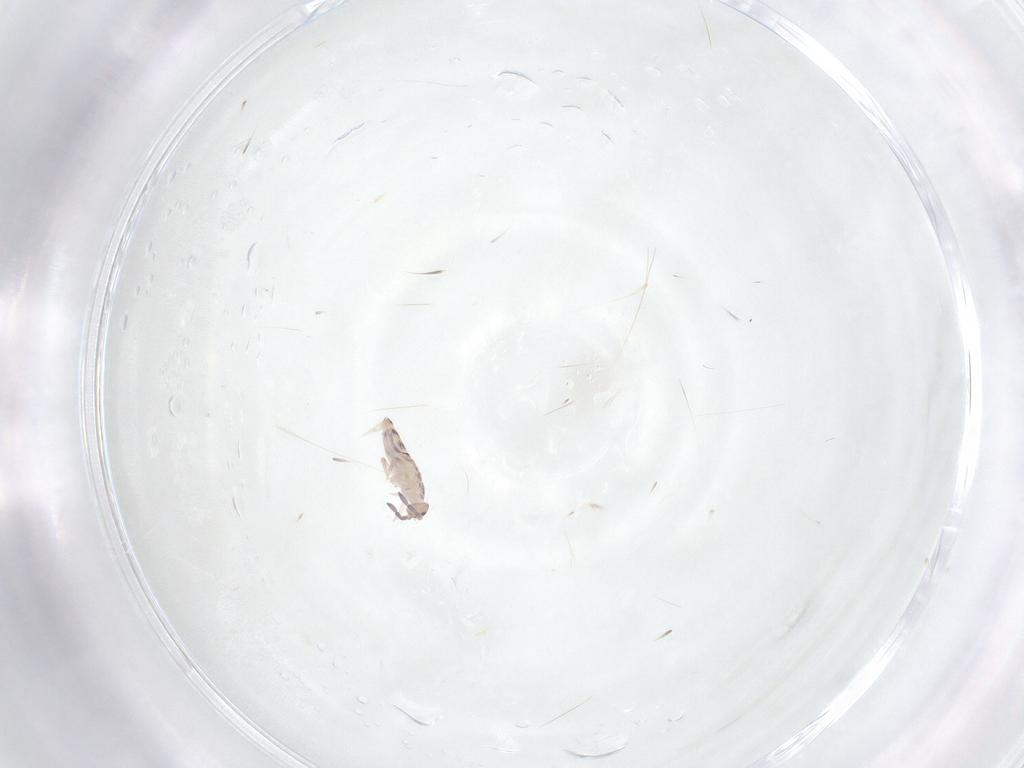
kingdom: Animalia
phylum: Arthropoda
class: Collembola
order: Entomobryomorpha
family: Entomobryidae
